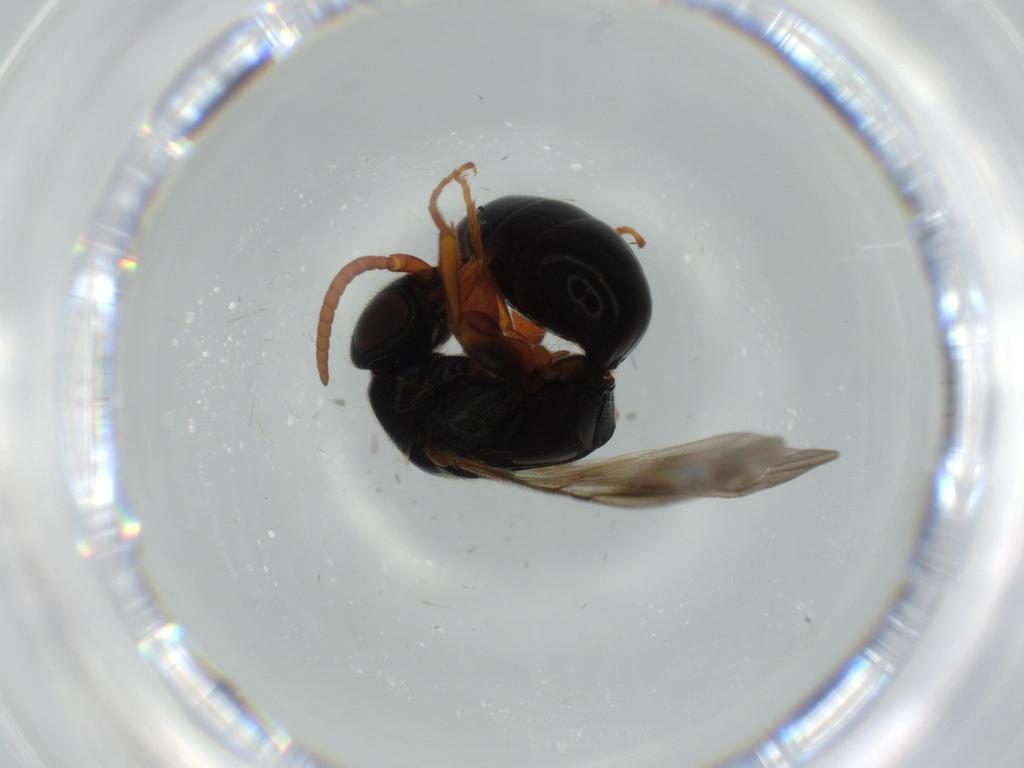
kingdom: Animalia
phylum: Arthropoda
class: Insecta
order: Hymenoptera
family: Bethylidae
